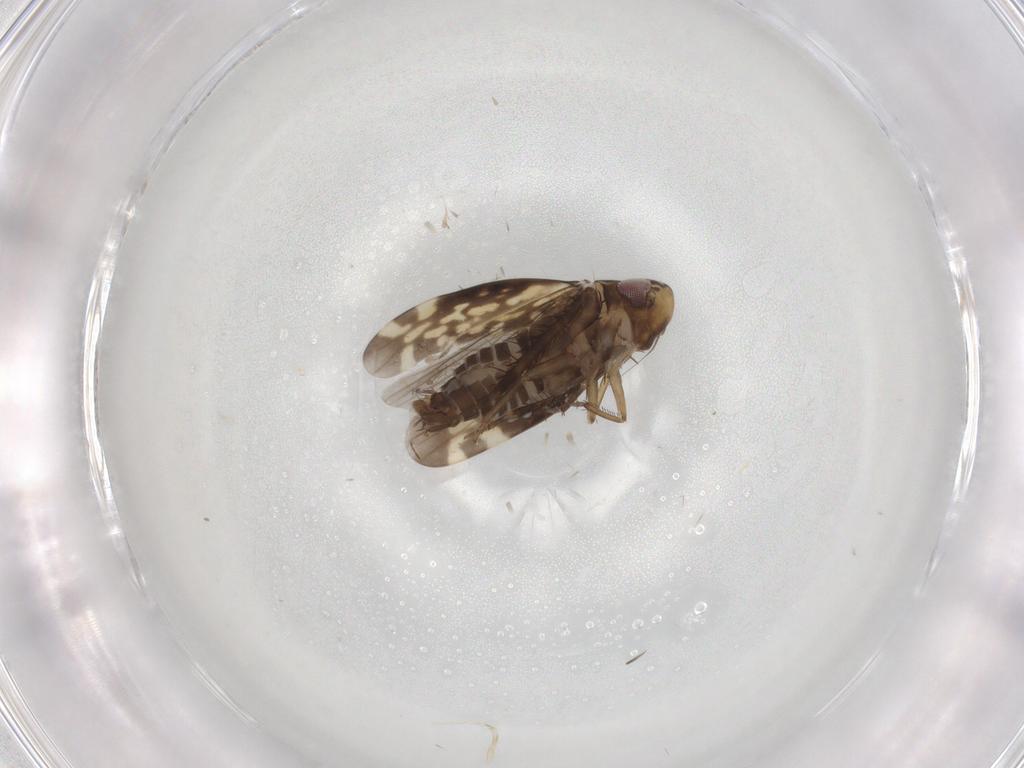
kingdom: Animalia
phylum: Arthropoda
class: Insecta
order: Hemiptera
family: Cicadellidae
